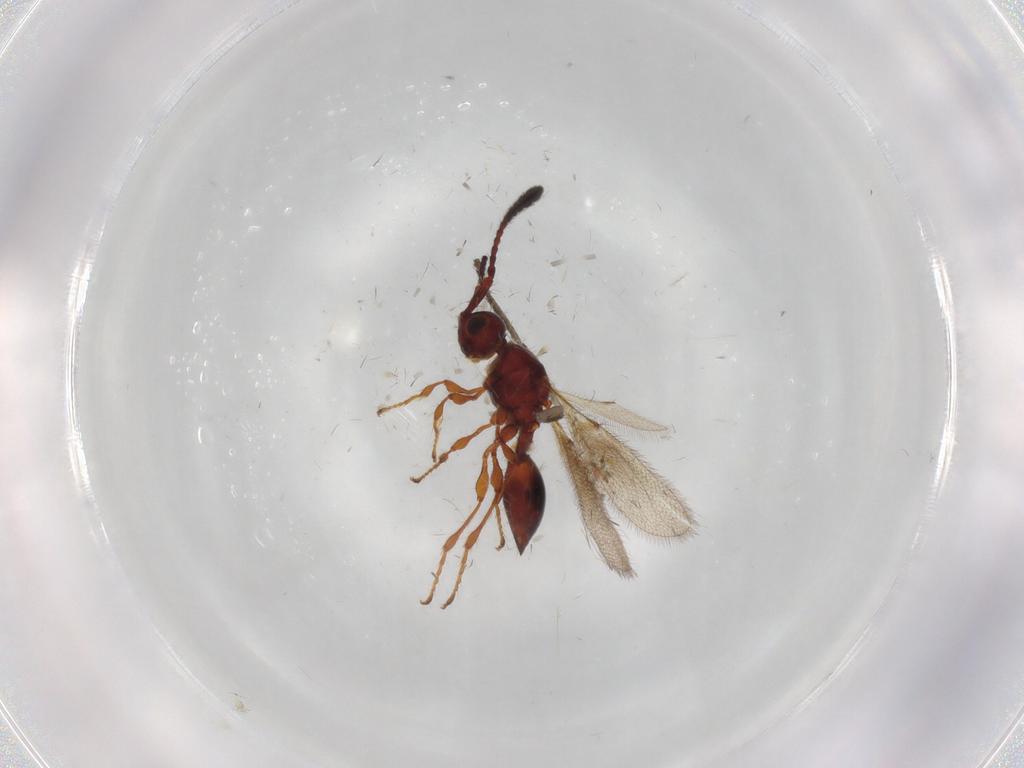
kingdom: Animalia
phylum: Arthropoda
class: Insecta
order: Hymenoptera
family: Diapriidae
